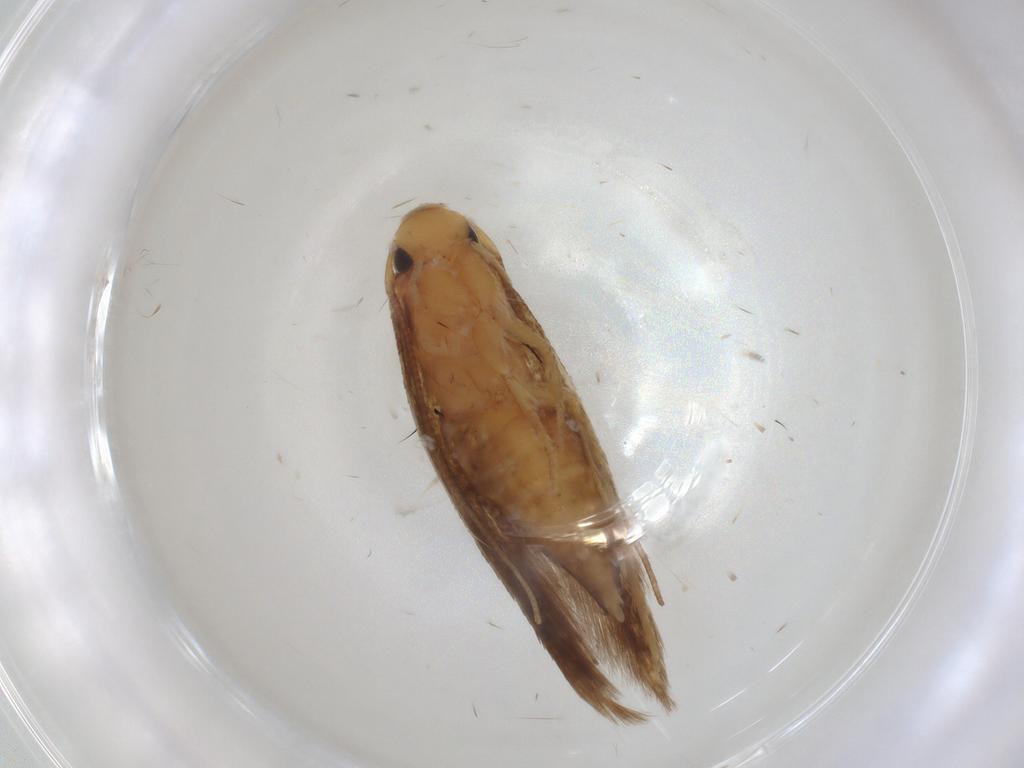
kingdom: Animalia
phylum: Arthropoda
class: Insecta
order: Lepidoptera
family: Elachistidae
